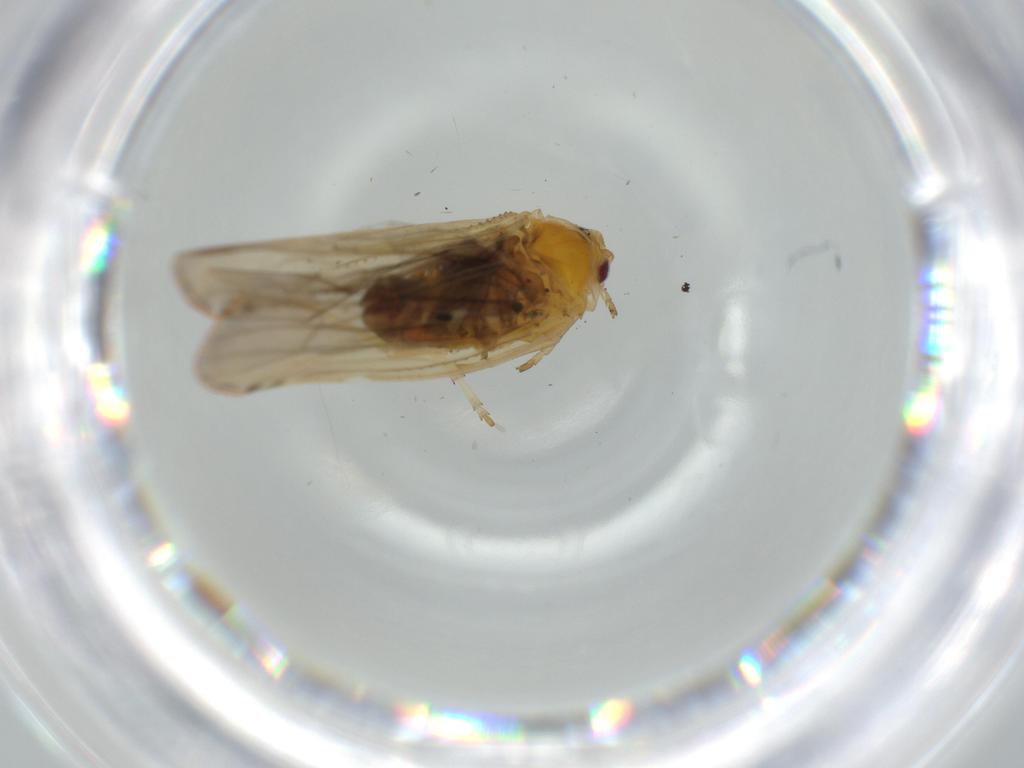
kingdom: Animalia
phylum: Arthropoda
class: Insecta
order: Hemiptera
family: Derbidae
